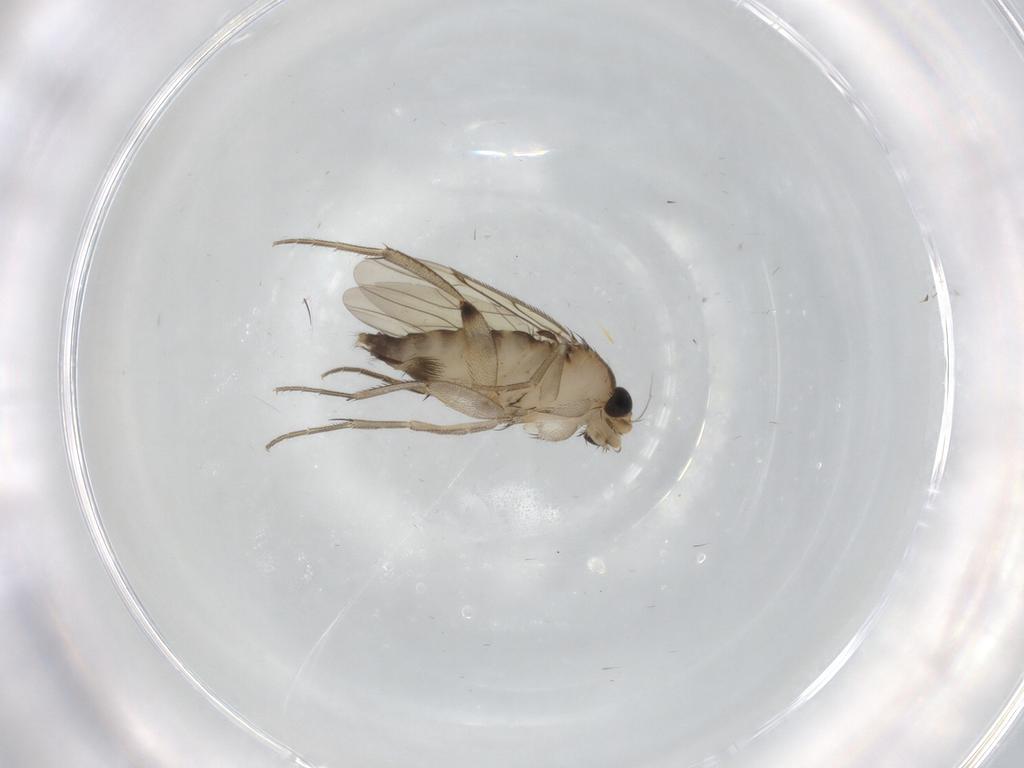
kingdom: Animalia
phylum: Arthropoda
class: Insecta
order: Diptera
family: Phoridae
